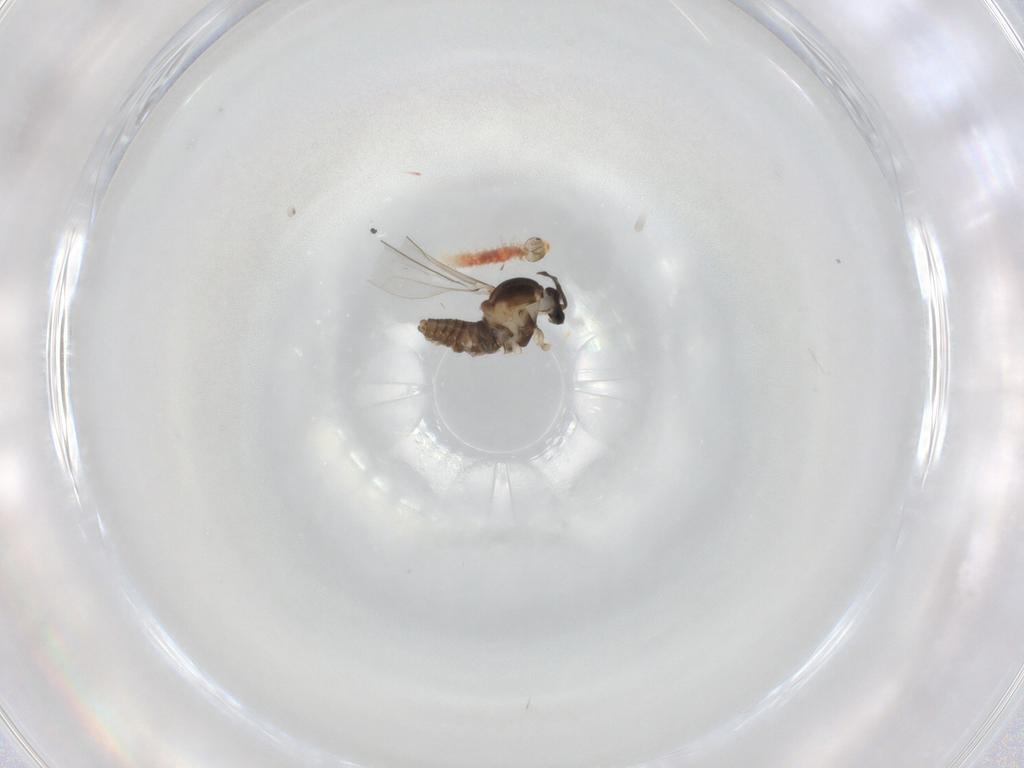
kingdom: Animalia
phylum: Arthropoda
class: Insecta
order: Diptera
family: Cecidomyiidae
